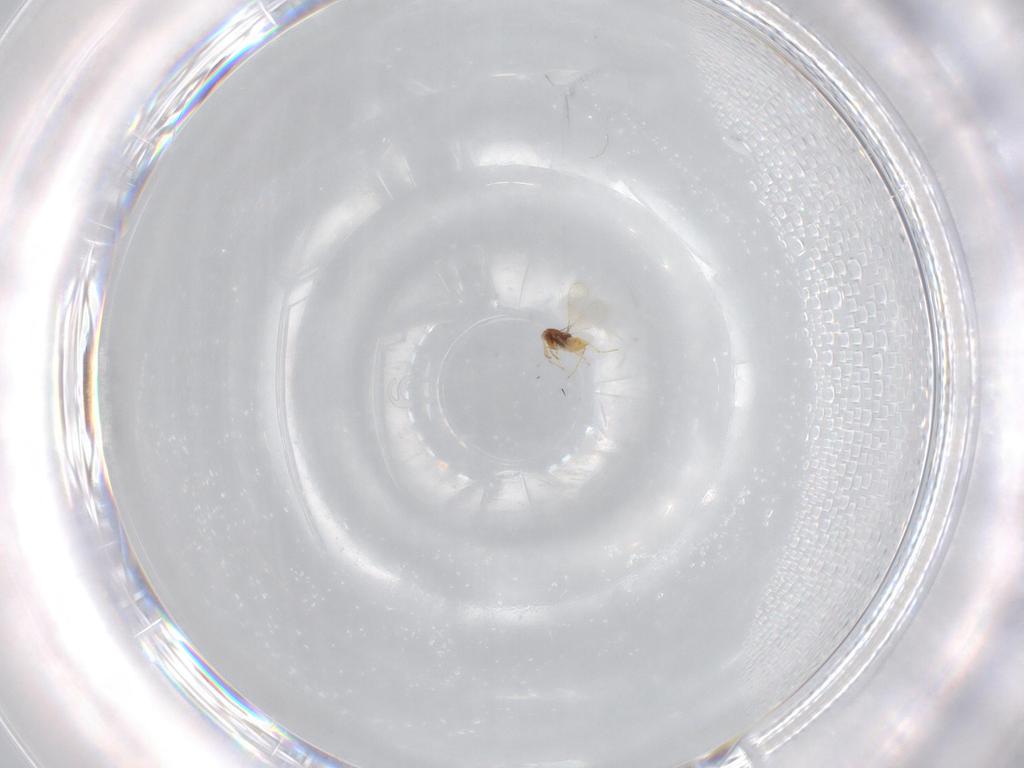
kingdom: Animalia
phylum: Arthropoda
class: Insecta
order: Hymenoptera
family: Aphelinidae
